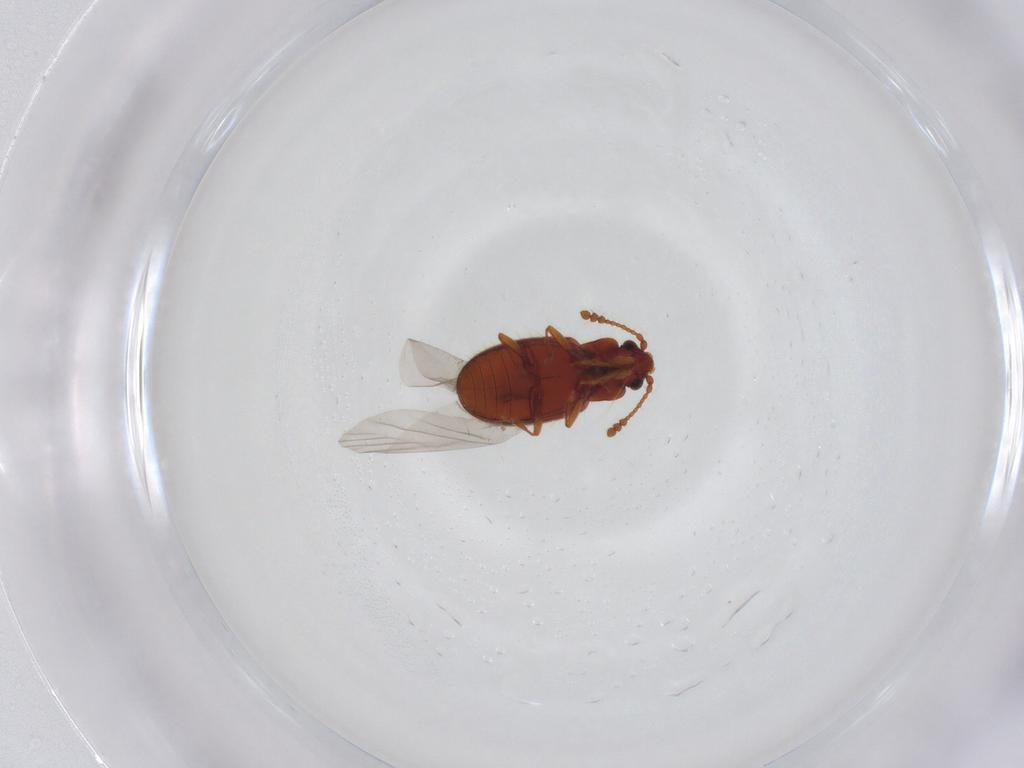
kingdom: Animalia
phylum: Arthropoda
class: Insecta
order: Coleoptera
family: Cryptophagidae
